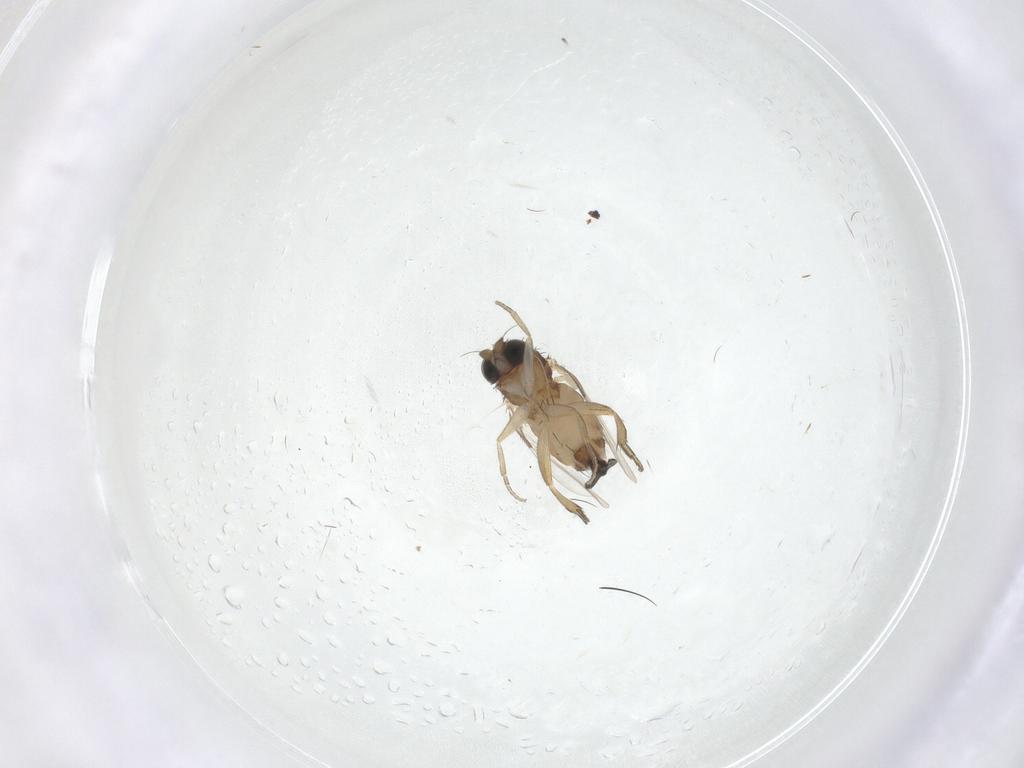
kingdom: Animalia
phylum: Arthropoda
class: Insecta
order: Diptera
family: Phoridae
